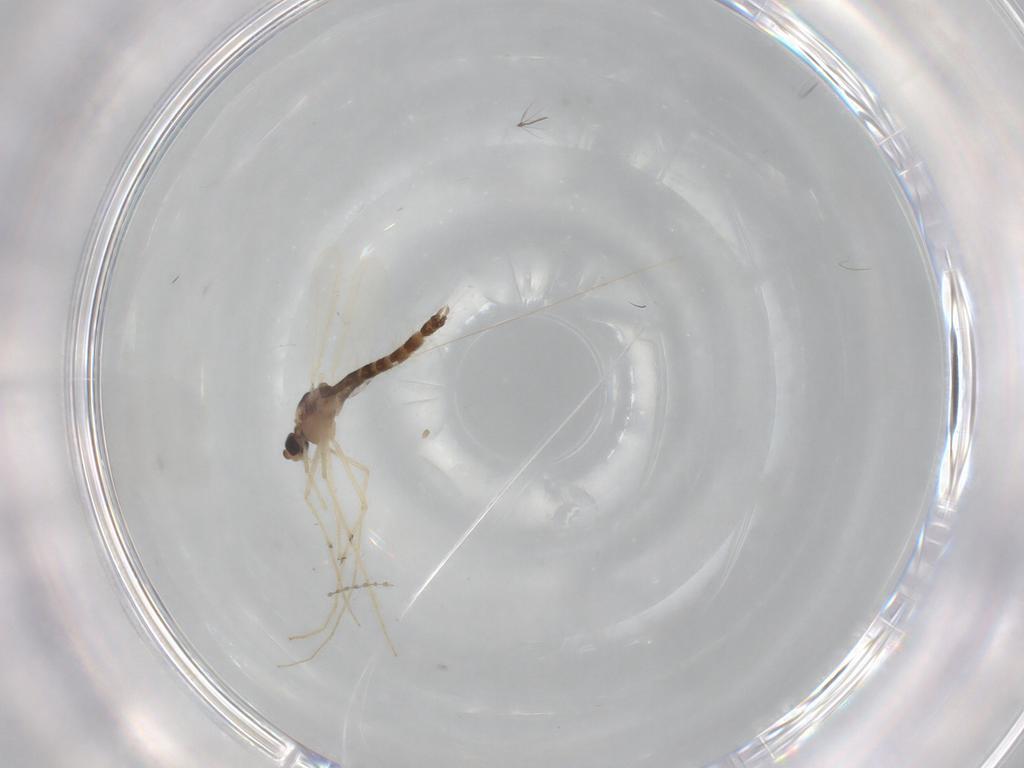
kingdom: Animalia
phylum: Arthropoda
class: Insecta
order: Diptera
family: Chironomidae
